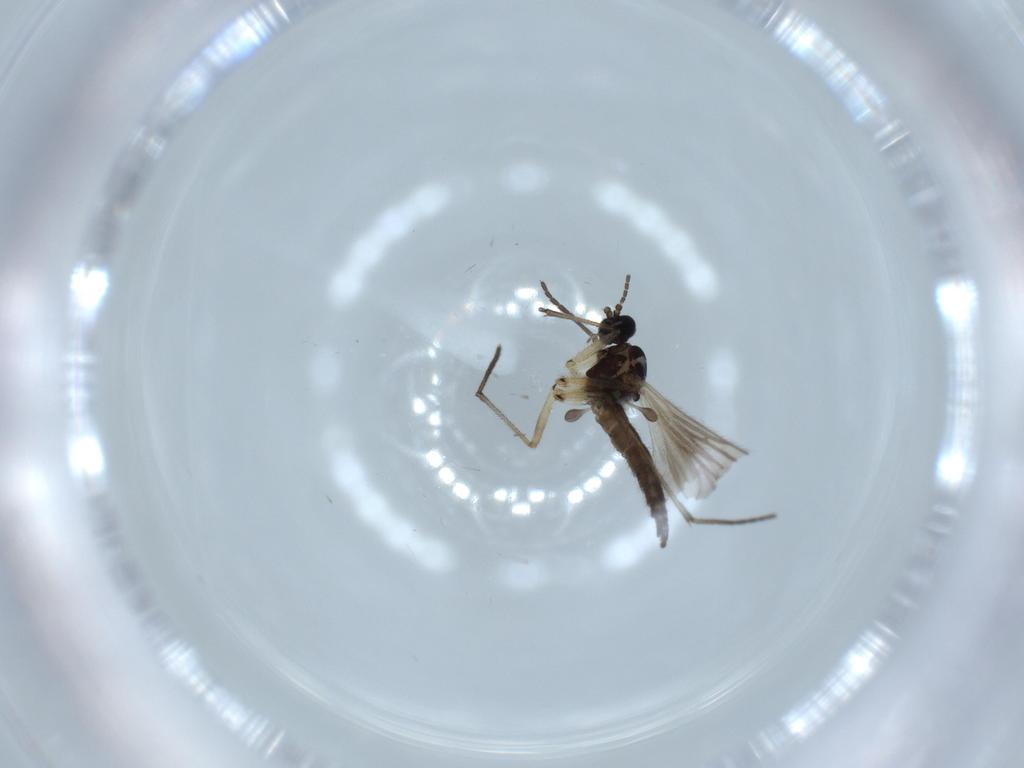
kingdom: Animalia
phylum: Arthropoda
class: Insecta
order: Diptera
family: Sciaridae
